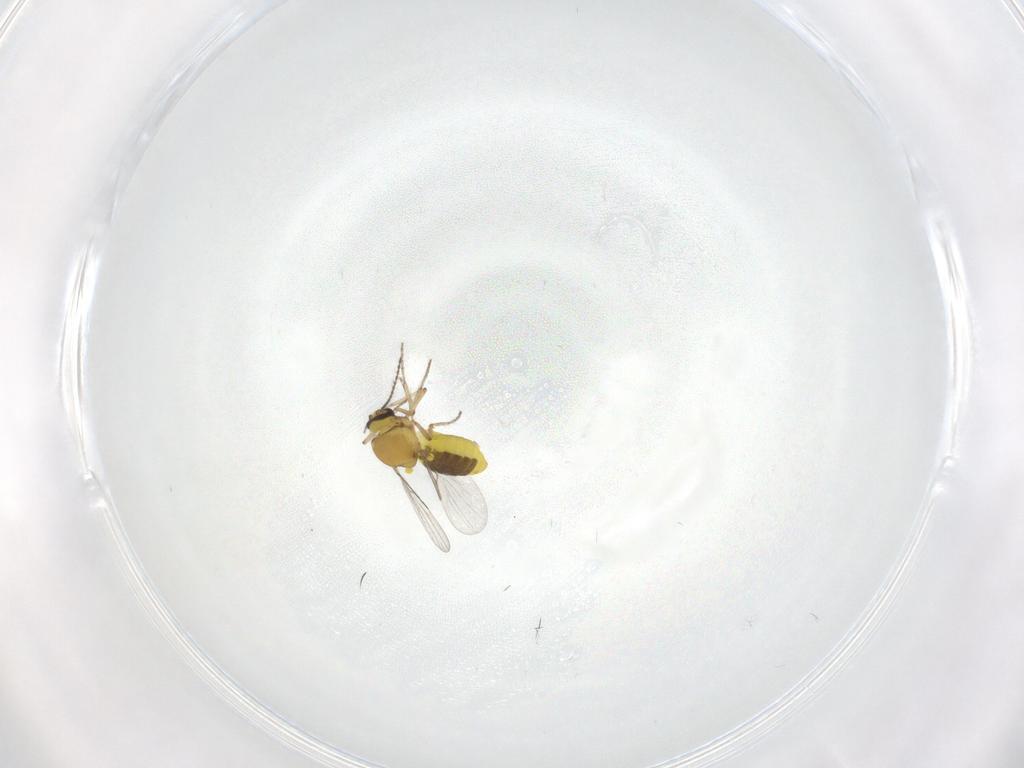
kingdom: Animalia
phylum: Arthropoda
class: Insecta
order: Diptera
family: Ceratopogonidae
